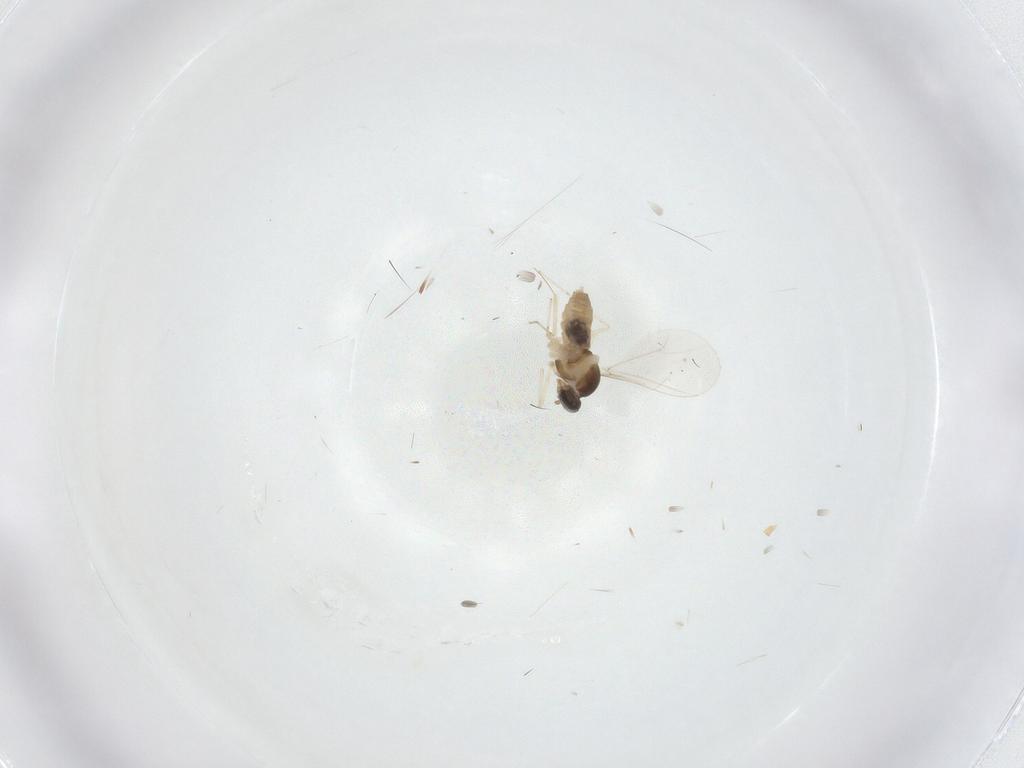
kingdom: Animalia
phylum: Arthropoda
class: Insecta
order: Diptera
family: Cecidomyiidae
